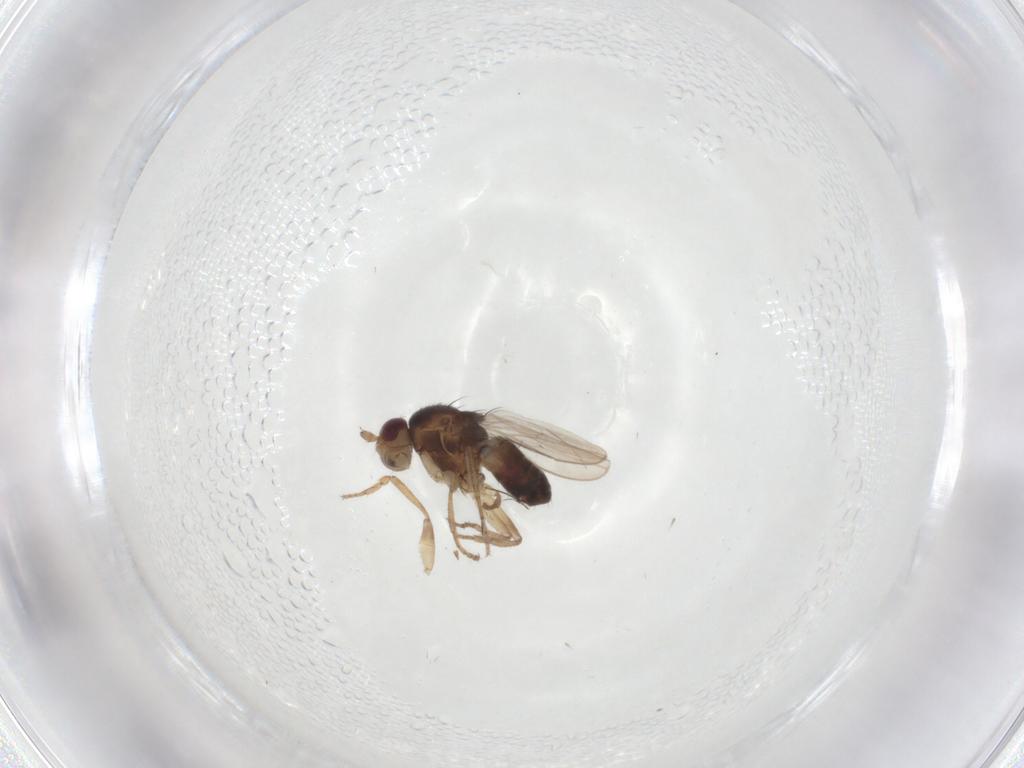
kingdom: Animalia
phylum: Arthropoda
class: Insecta
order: Diptera
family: Sphaeroceridae
